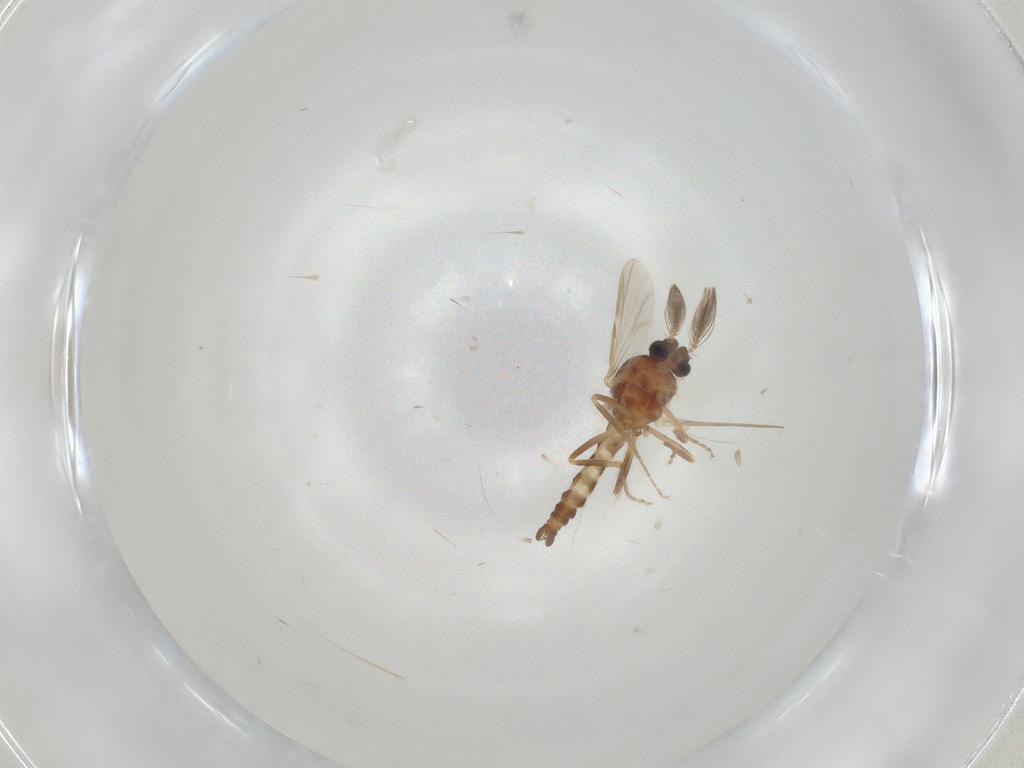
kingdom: Animalia
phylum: Arthropoda
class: Insecta
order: Diptera
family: Ceratopogonidae
